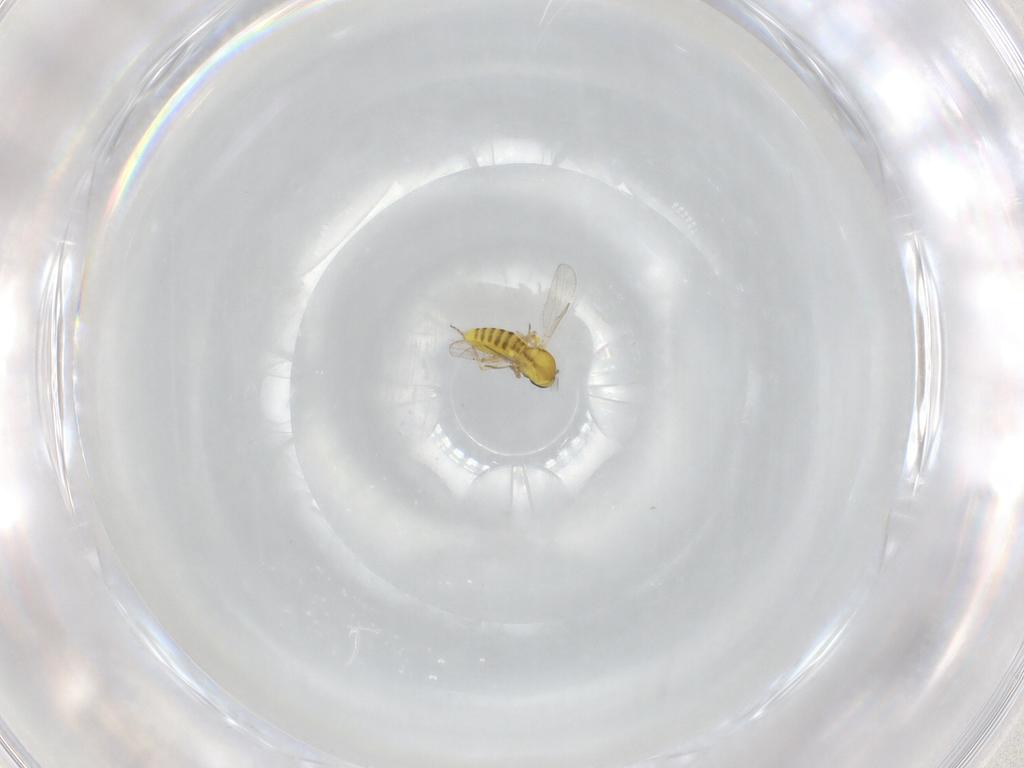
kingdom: Animalia
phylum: Arthropoda
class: Insecta
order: Diptera
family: Ceratopogonidae
